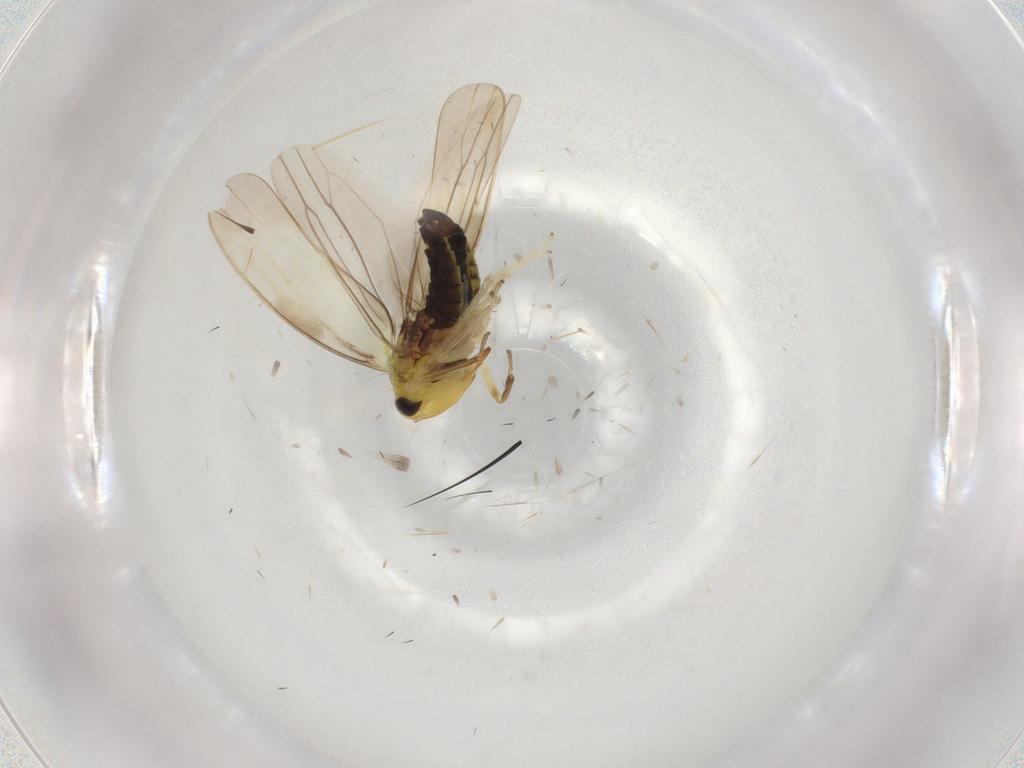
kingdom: Animalia
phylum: Arthropoda
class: Insecta
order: Hemiptera
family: Cicadellidae
